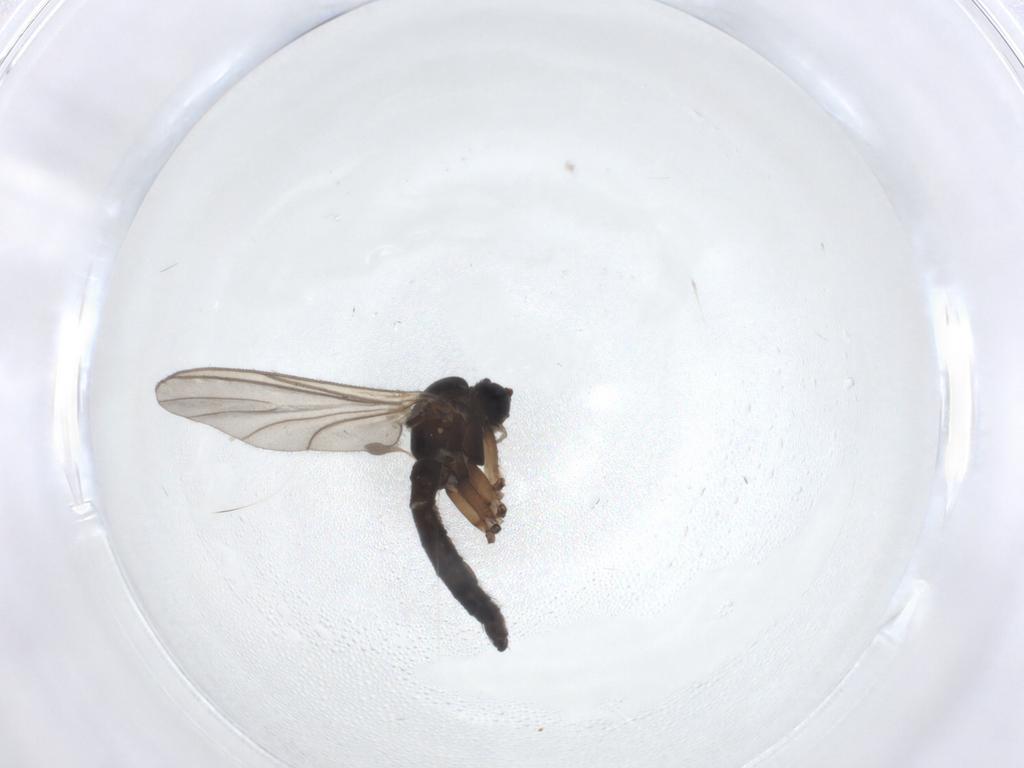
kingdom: Animalia
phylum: Arthropoda
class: Insecta
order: Diptera
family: Sciaridae
